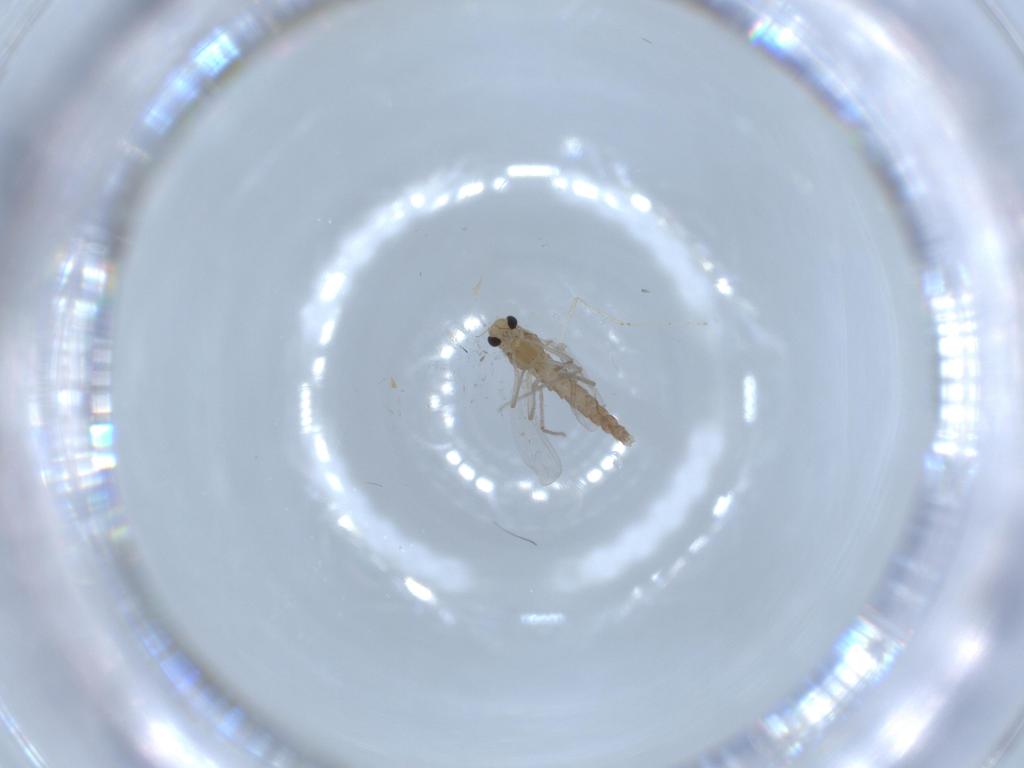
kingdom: Animalia
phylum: Arthropoda
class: Insecta
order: Diptera
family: Chironomidae
